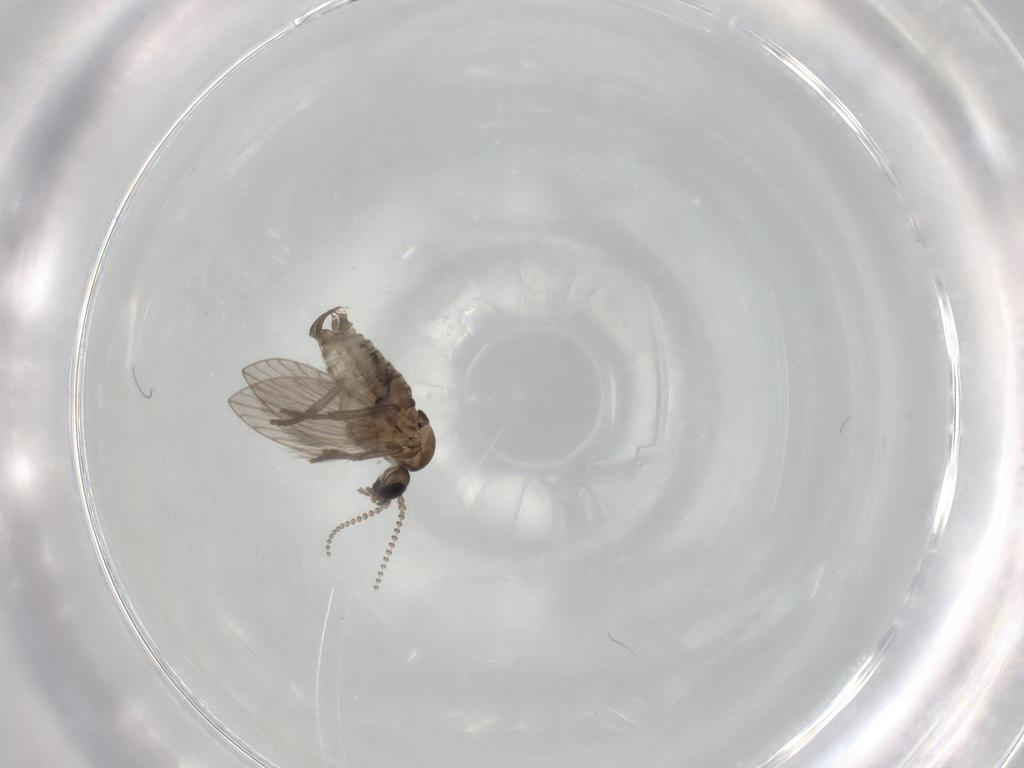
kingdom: Animalia
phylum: Arthropoda
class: Insecta
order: Diptera
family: Psychodidae
